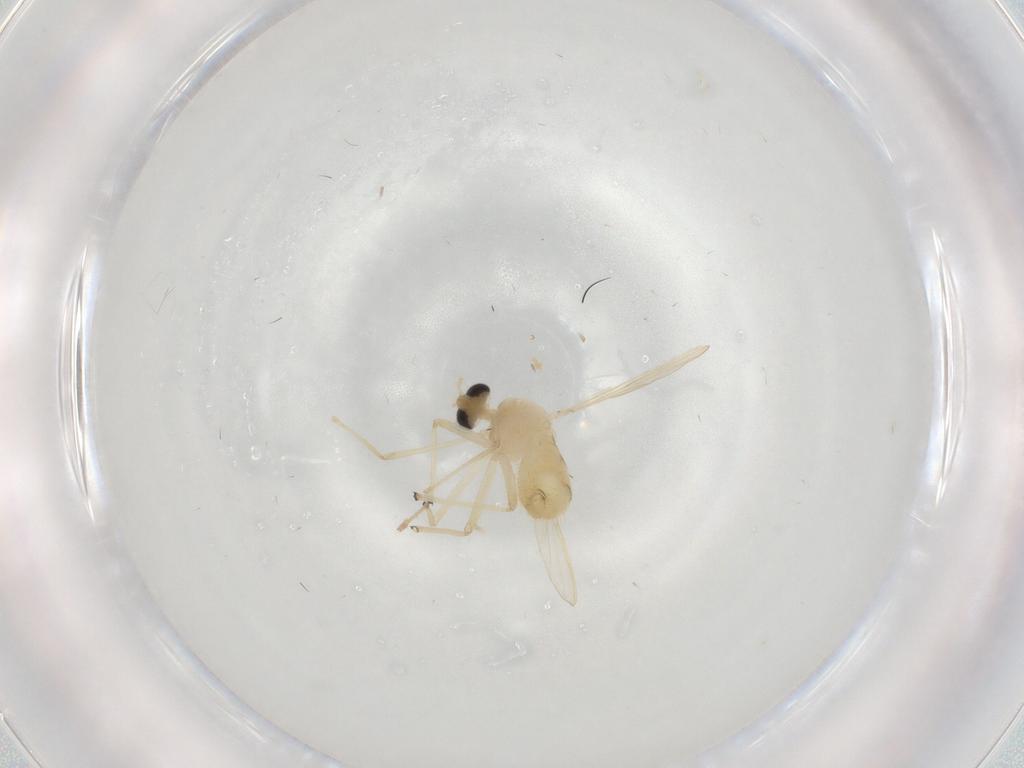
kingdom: Animalia
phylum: Arthropoda
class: Insecta
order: Diptera
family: Chironomidae
